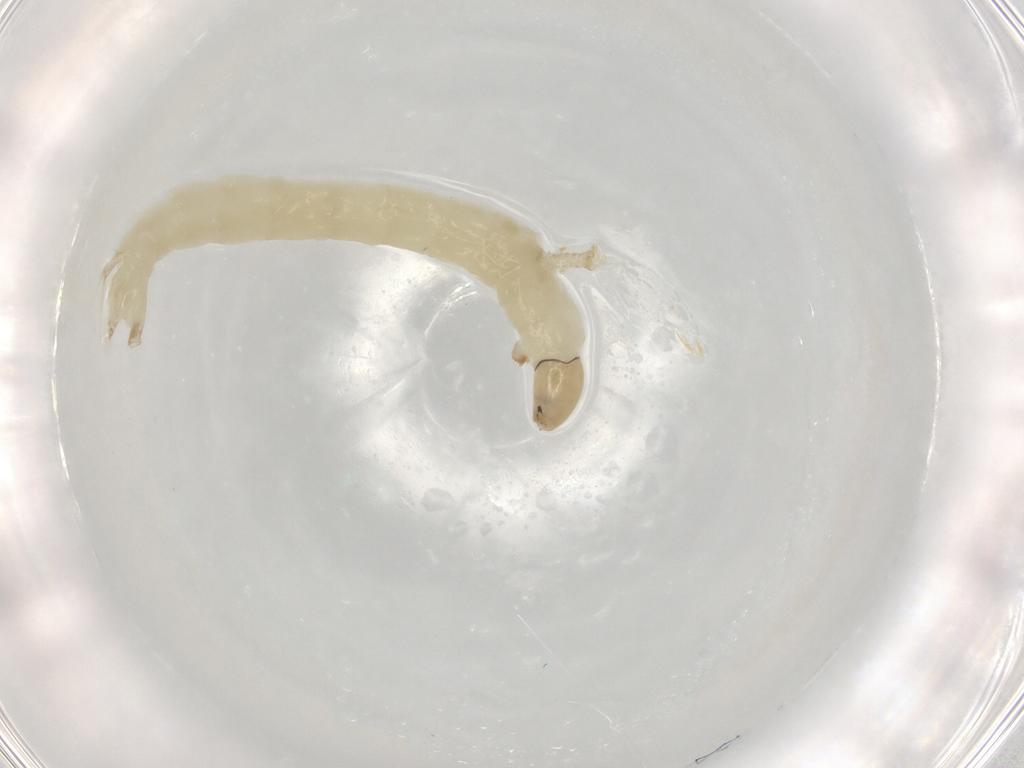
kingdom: Animalia
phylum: Arthropoda
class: Insecta
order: Diptera
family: Chironomidae
